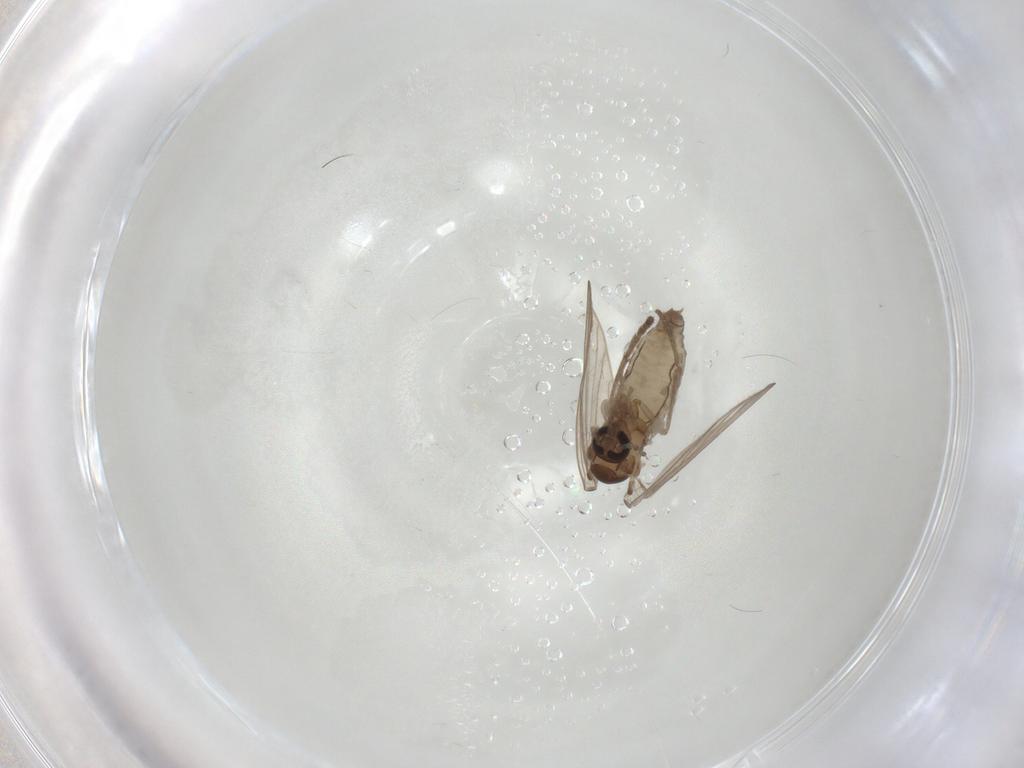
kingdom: Animalia
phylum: Arthropoda
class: Insecta
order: Diptera
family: Psychodidae
